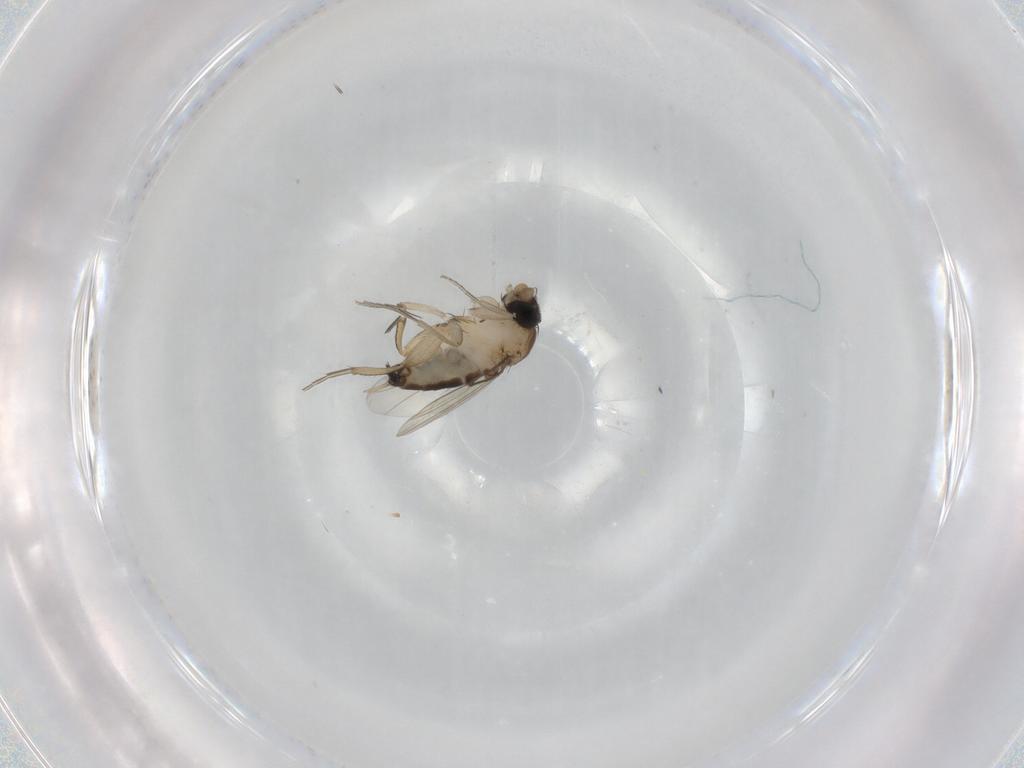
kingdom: Animalia
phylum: Arthropoda
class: Insecta
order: Diptera
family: Phoridae
